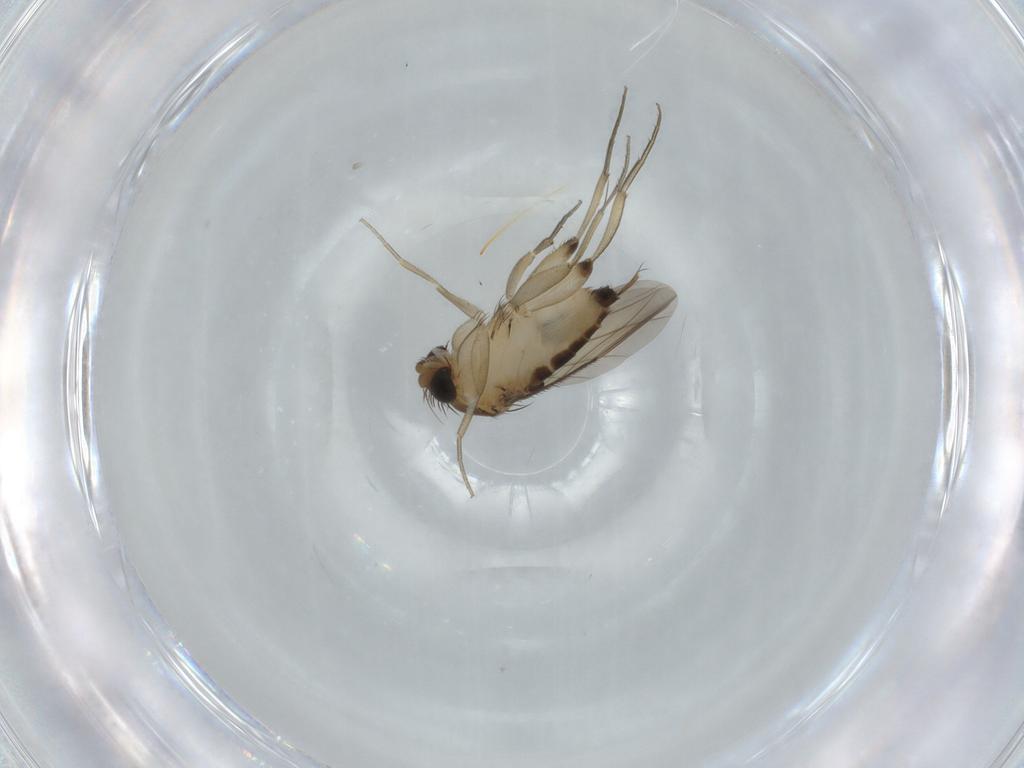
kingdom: Animalia
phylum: Arthropoda
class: Insecta
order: Diptera
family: Phoridae
